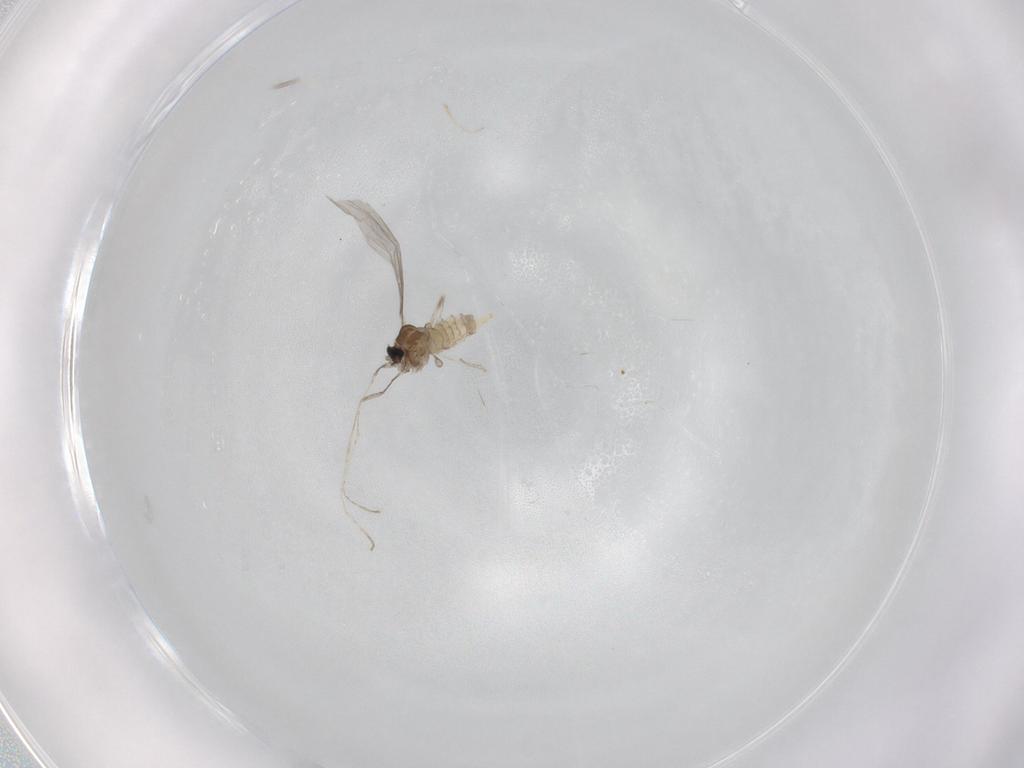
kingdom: Animalia
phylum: Arthropoda
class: Insecta
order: Diptera
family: Cecidomyiidae
